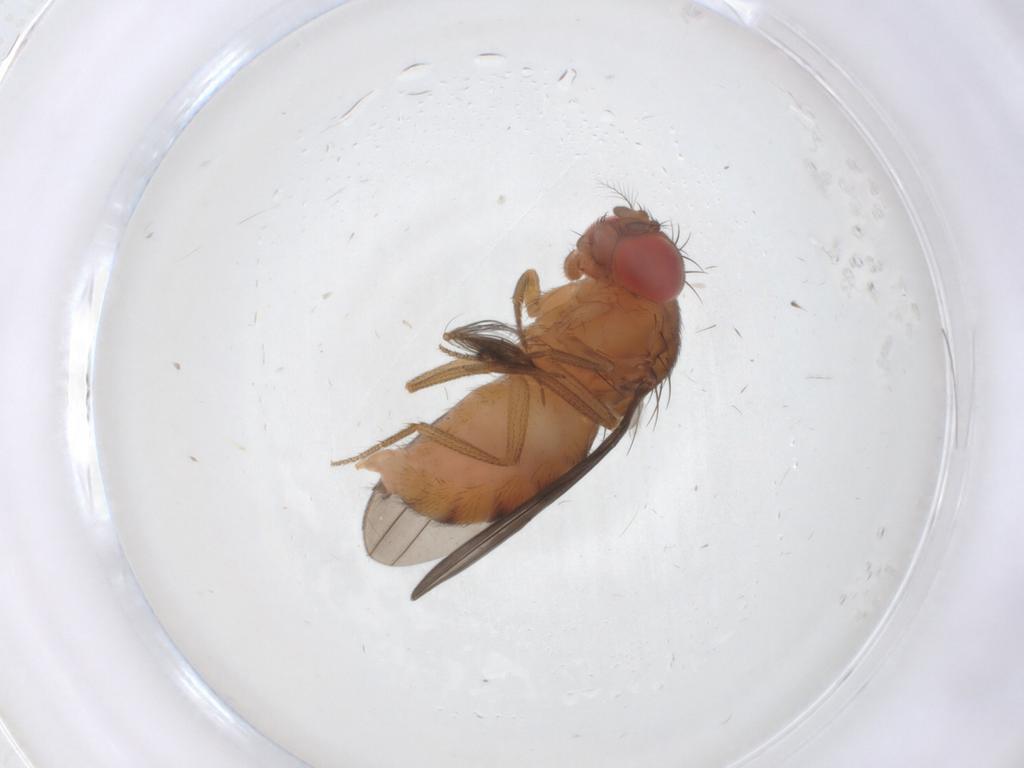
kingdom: Animalia
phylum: Arthropoda
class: Insecta
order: Diptera
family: Drosophilidae
